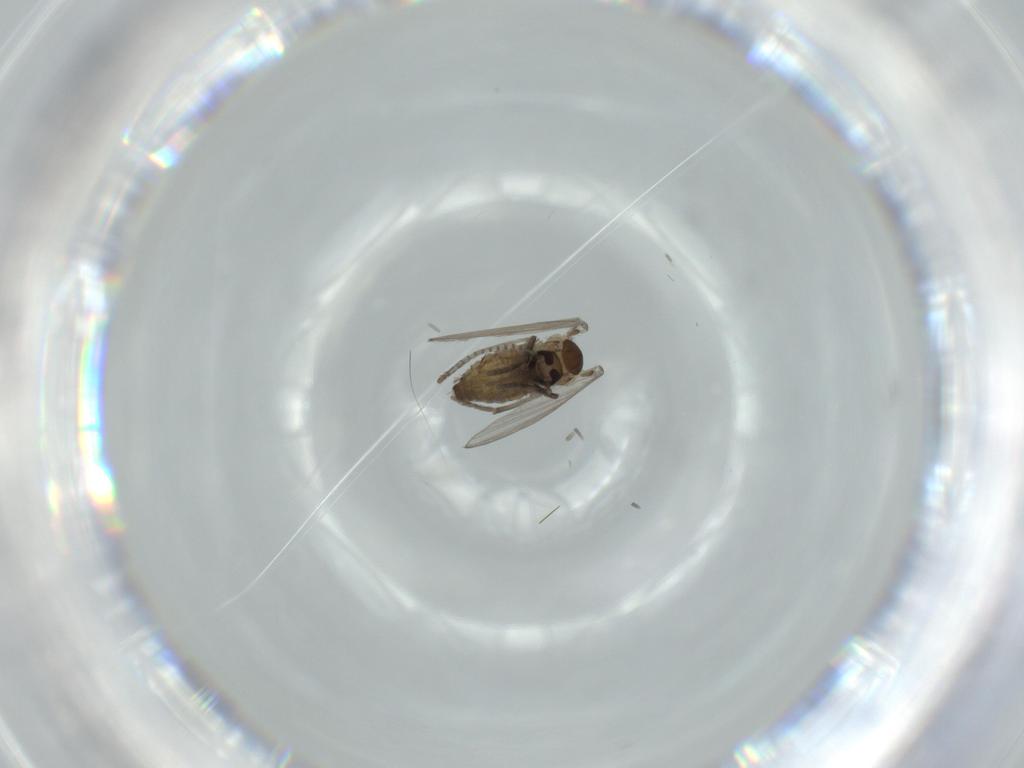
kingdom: Animalia
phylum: Arthropoda
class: Insecta
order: Diptera
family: Psychodidae
